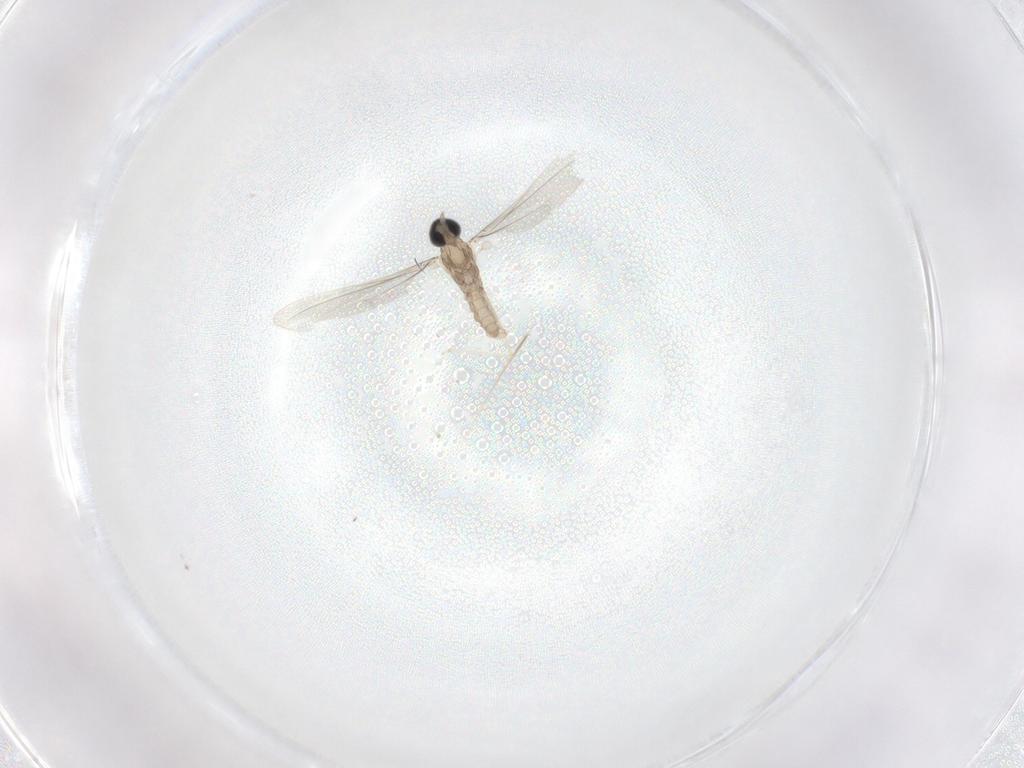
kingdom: Animalia
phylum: Arthropoda
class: Insecta
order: Diptera
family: Cecidomyiidae
